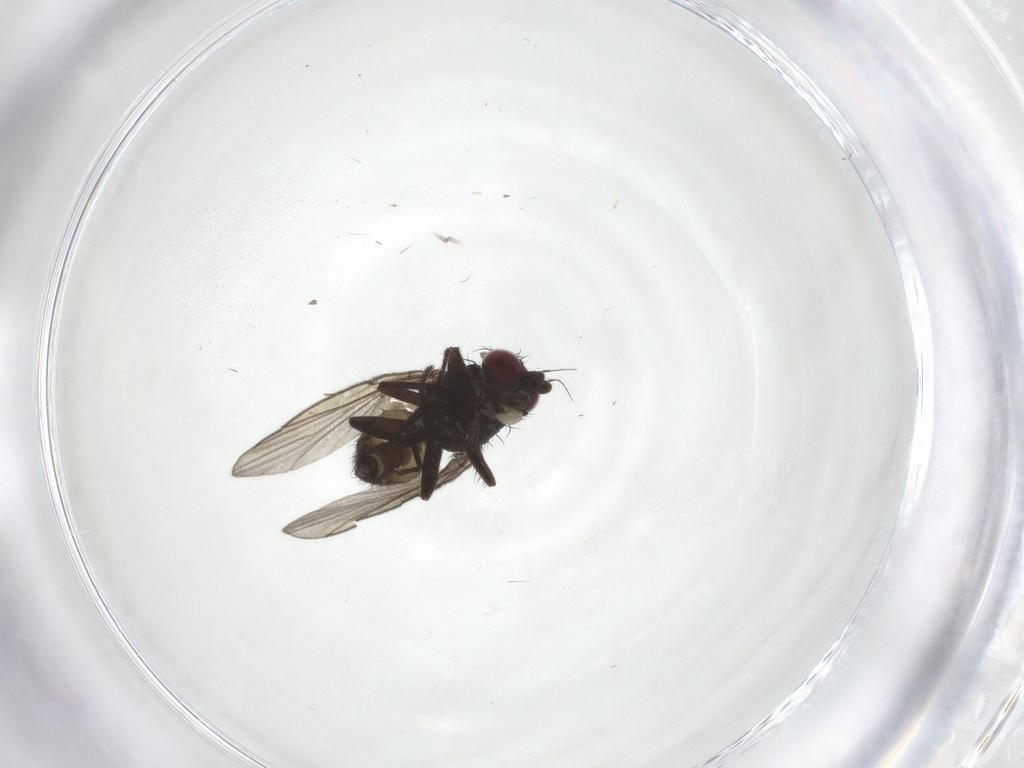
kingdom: Animalia
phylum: Arthropoda
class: Insecta
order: Diptera
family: Agromyzidae
